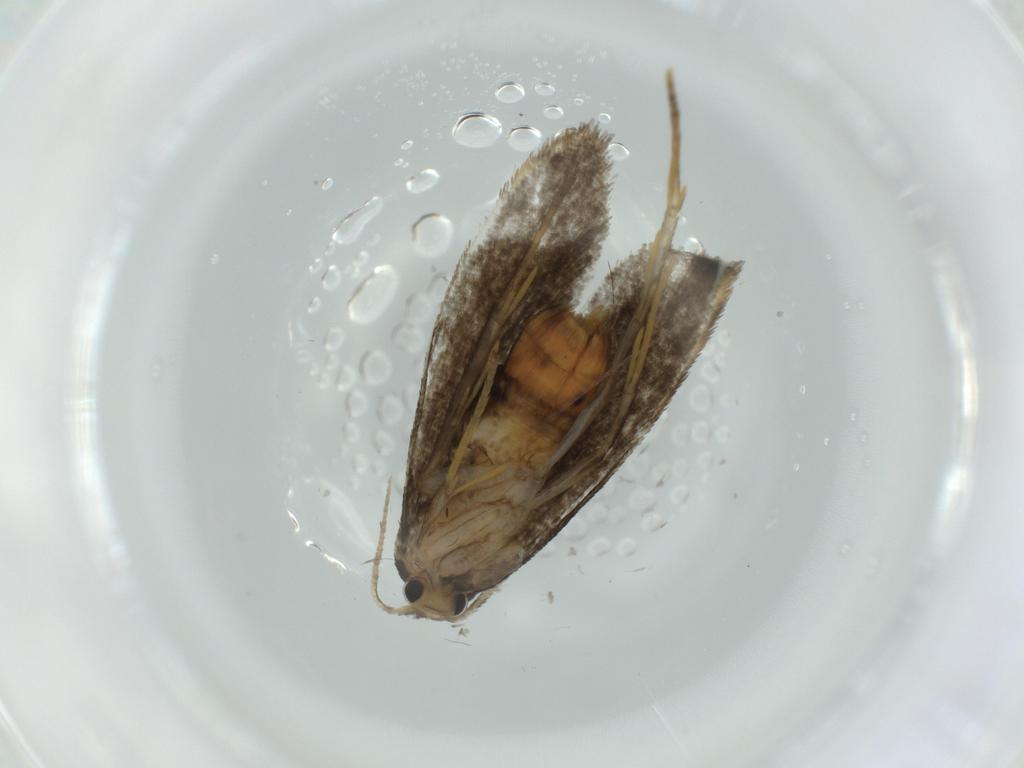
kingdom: Animalia
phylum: Arthropoda
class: Insecta
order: Lepidoptera
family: Psychidae
